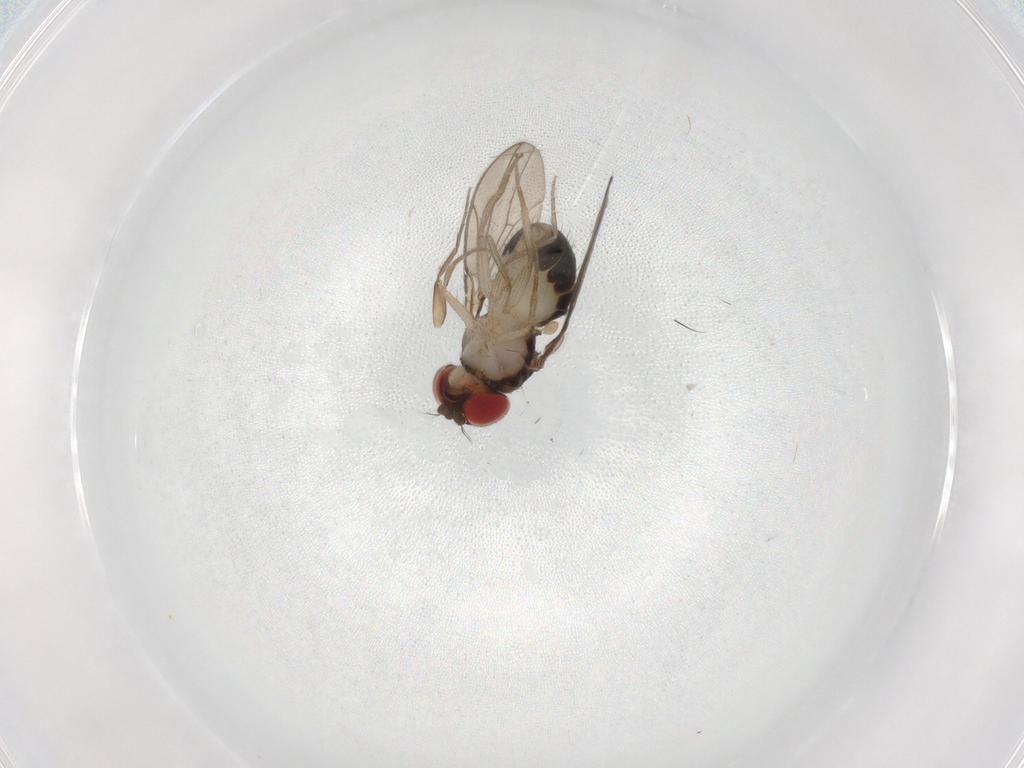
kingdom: Animalia
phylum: Arthropoda
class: Insecta
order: Diptera
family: Drosophilidae
